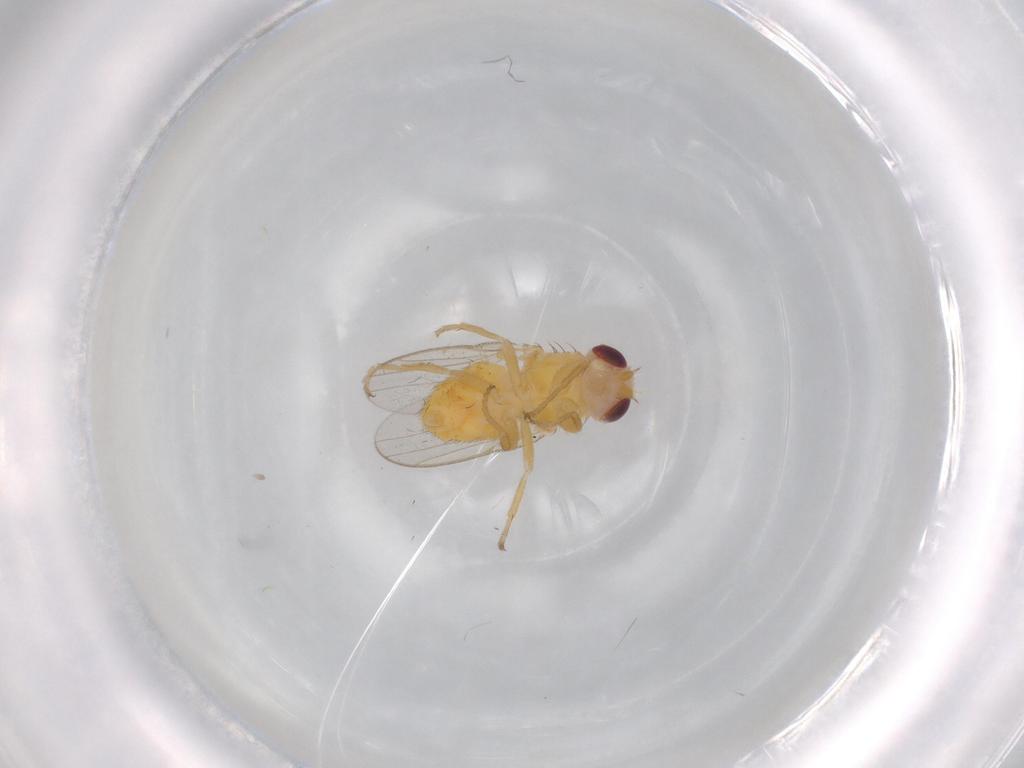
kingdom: Animalia
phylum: Arthropoda
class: Insecta
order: Diptera
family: Chloropidae
